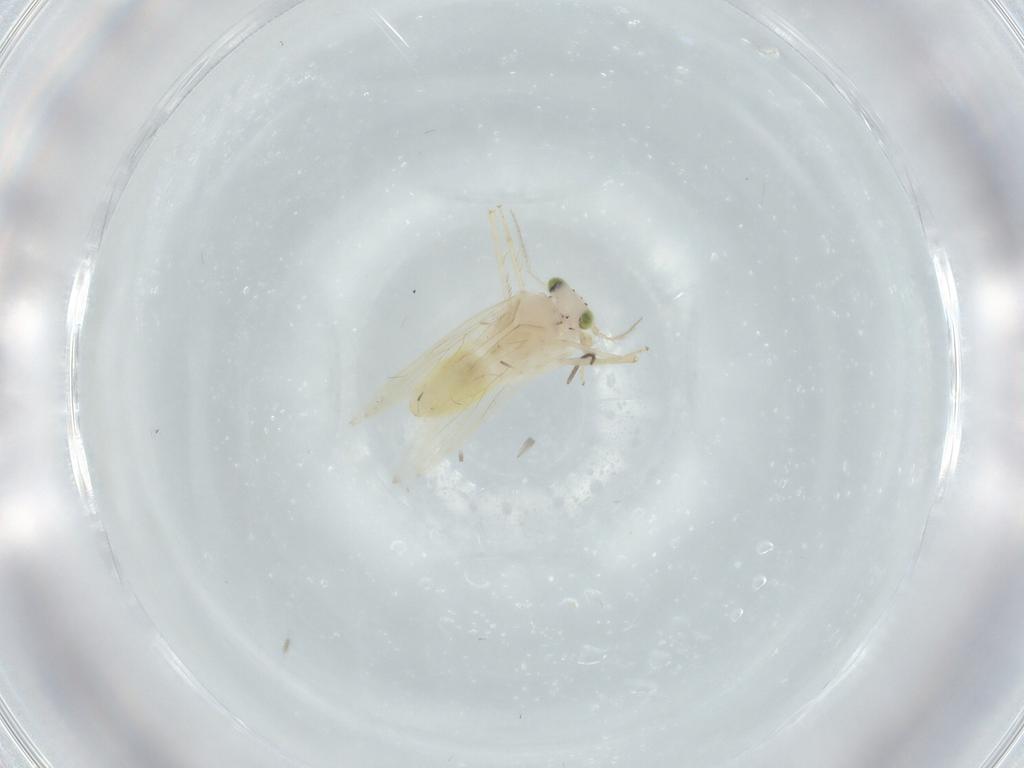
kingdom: Animalia
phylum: Arthropoda
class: Insecta
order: Psocodea
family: Lepidopsocidae
